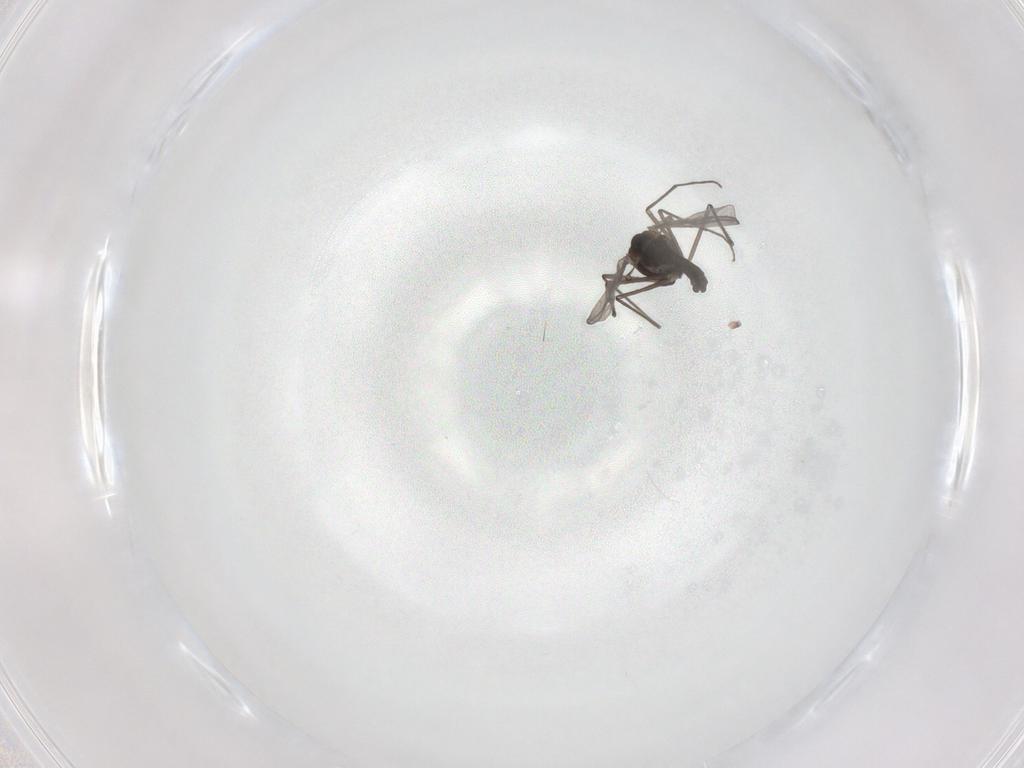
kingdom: Animalia
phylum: Arthropoda
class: Insecta
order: Diptera
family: Chironomidae
